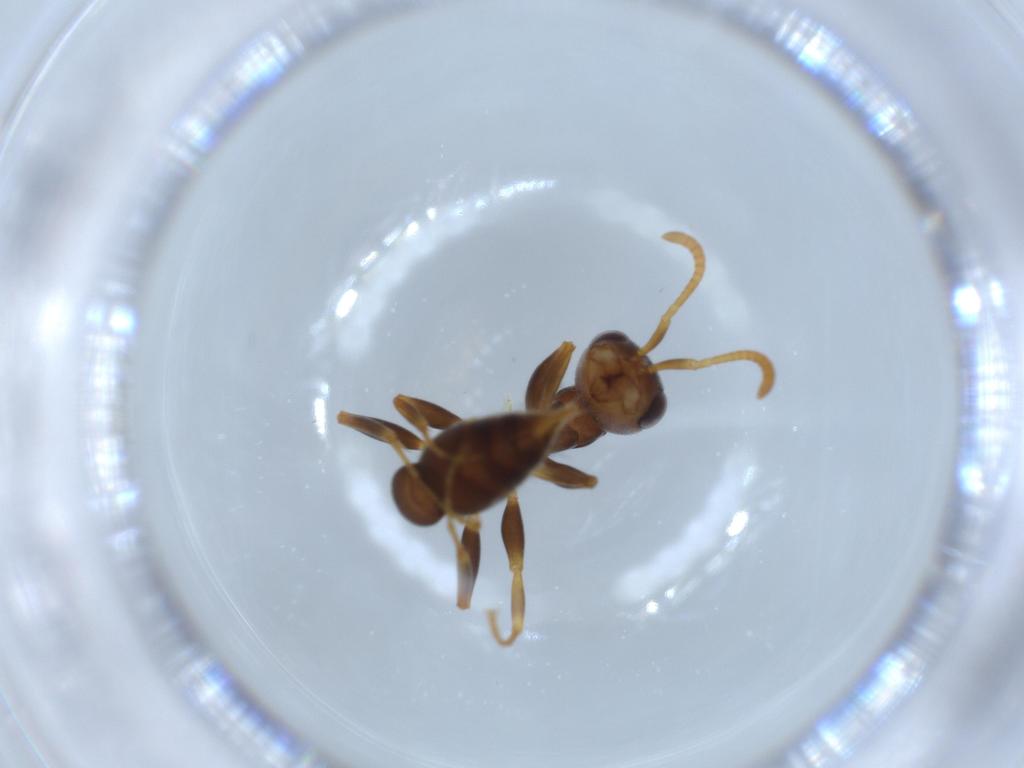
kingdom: Animalia
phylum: Arthropoda
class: Insecta
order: Hymenoptera
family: Formicidae
